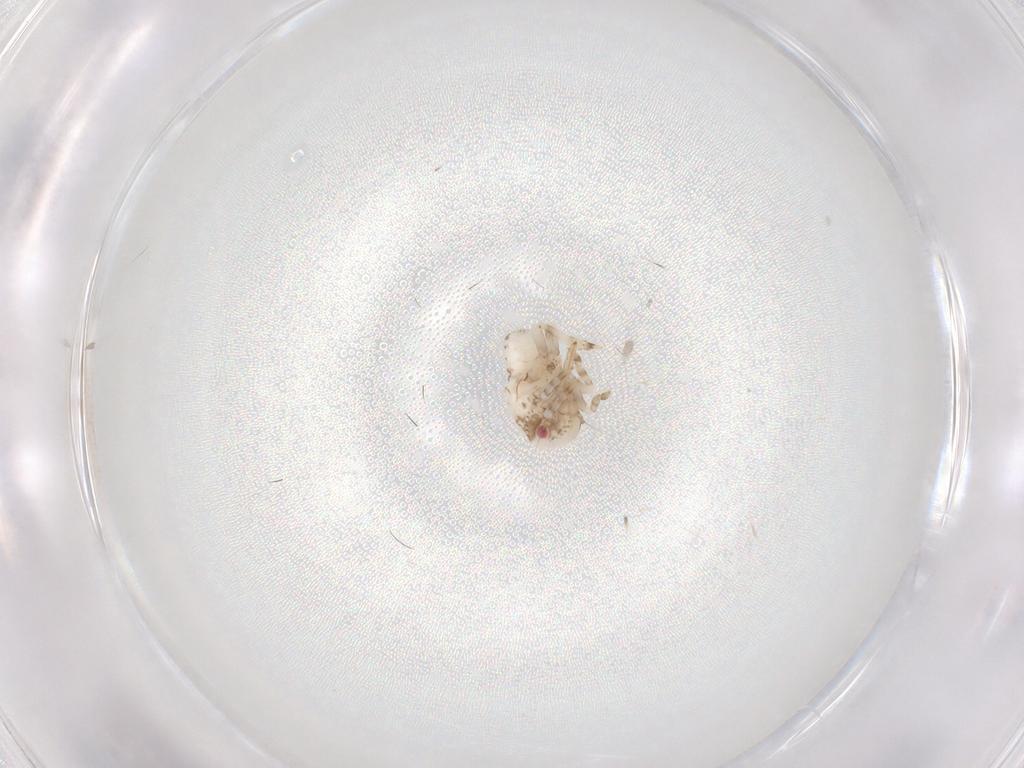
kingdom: Animalia
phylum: Arthropoda
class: Insecta
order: Hemiptera
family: Acanaloniidae
